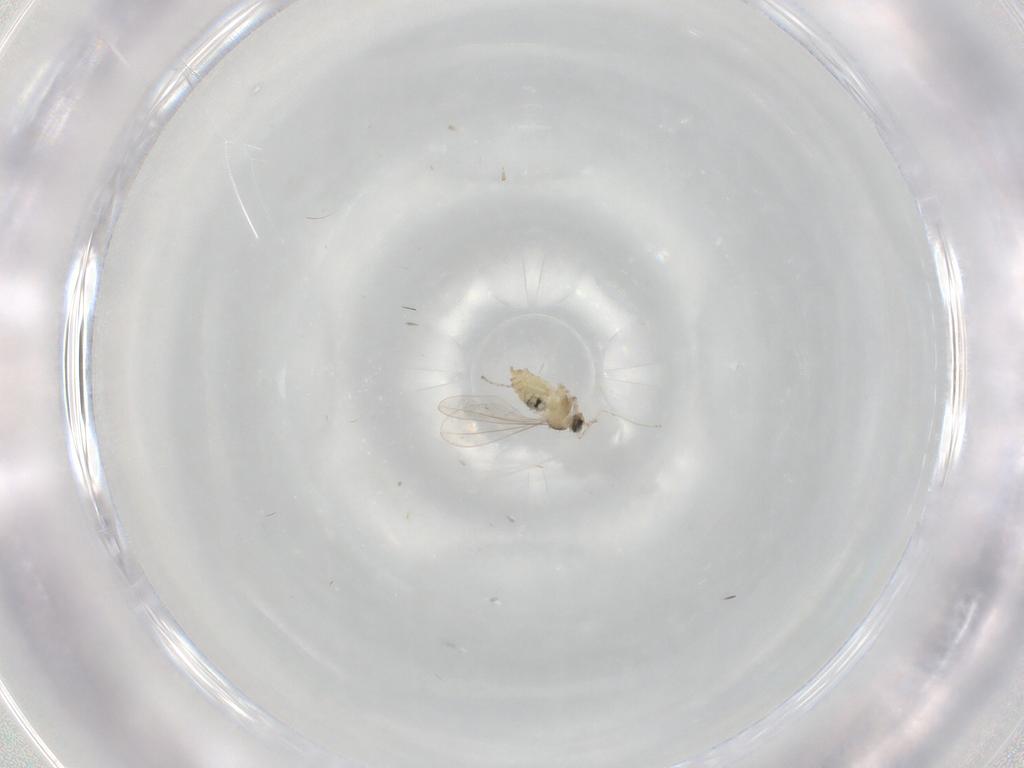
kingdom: Animalia
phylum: Arthropoda
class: Insecta
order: Diptera
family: Cecidomyiidae
